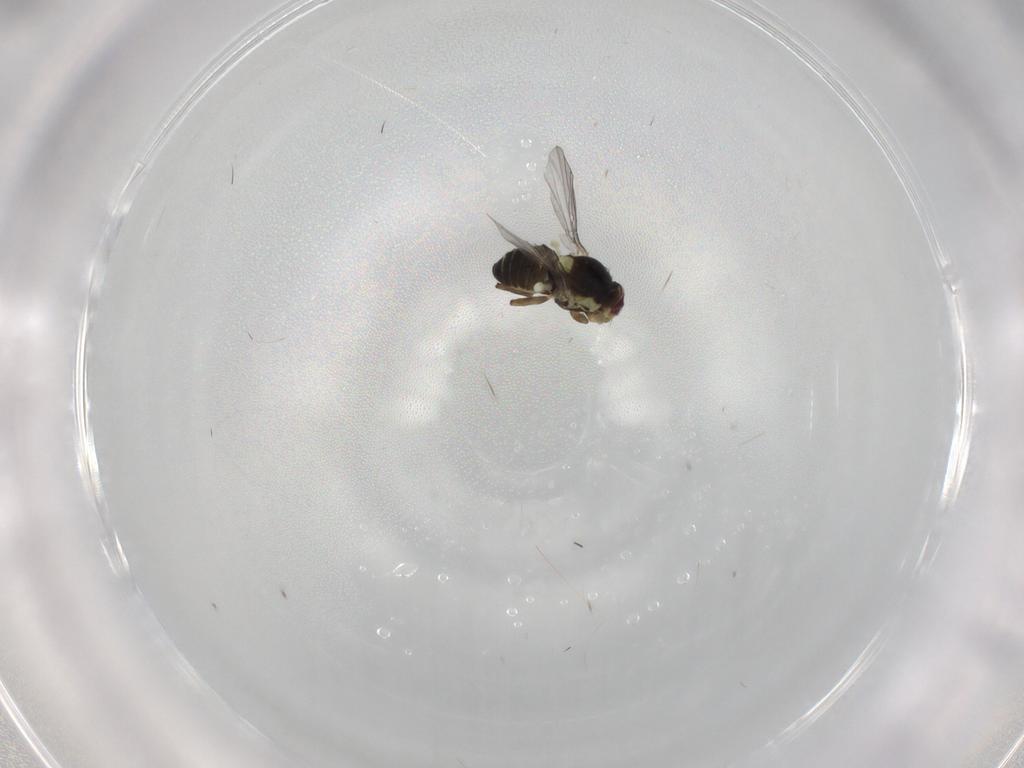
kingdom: Animalia
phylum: Arthropoda
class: Insecta
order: Diptera
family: Agromyzidae
